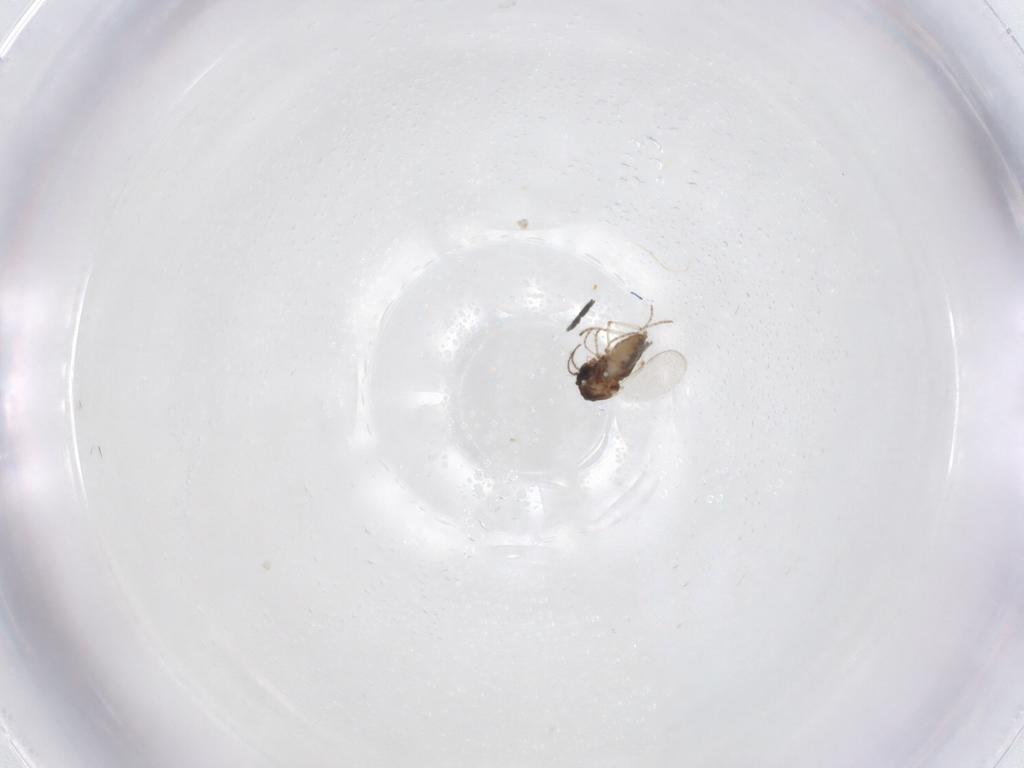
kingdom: Animalia
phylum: Arthropoda
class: Insecta
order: Diptera
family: Ceratopogonidae
